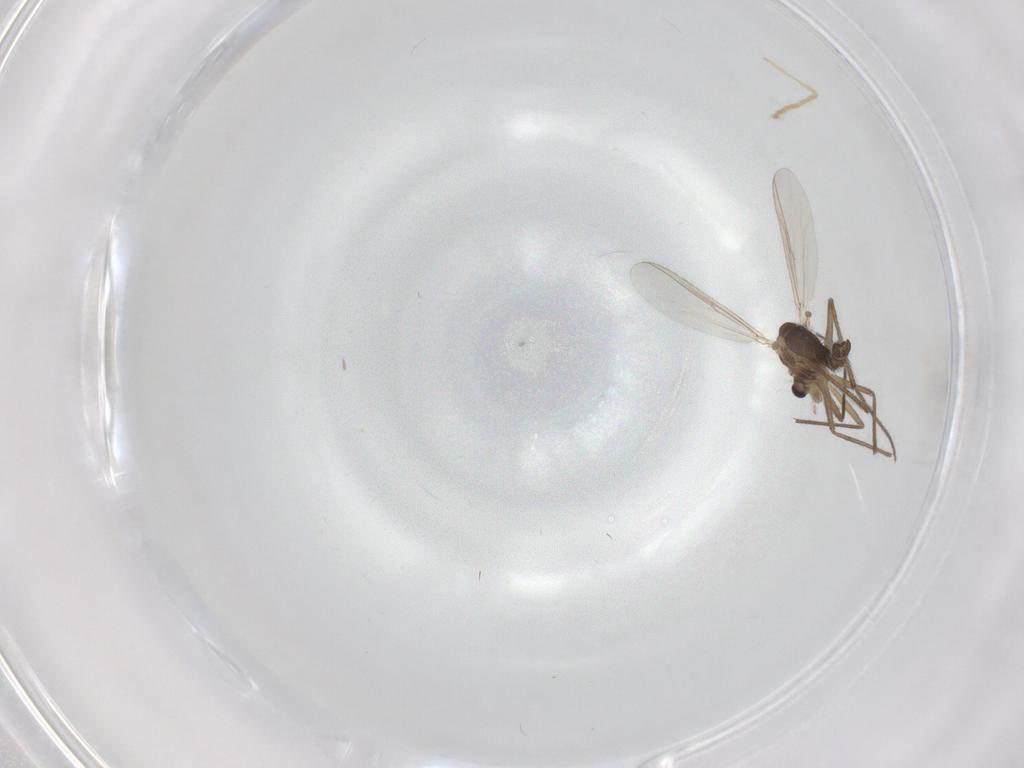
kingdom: Animalia
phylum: Arthropoda
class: Insecta
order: Diptera
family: Chironomidae
